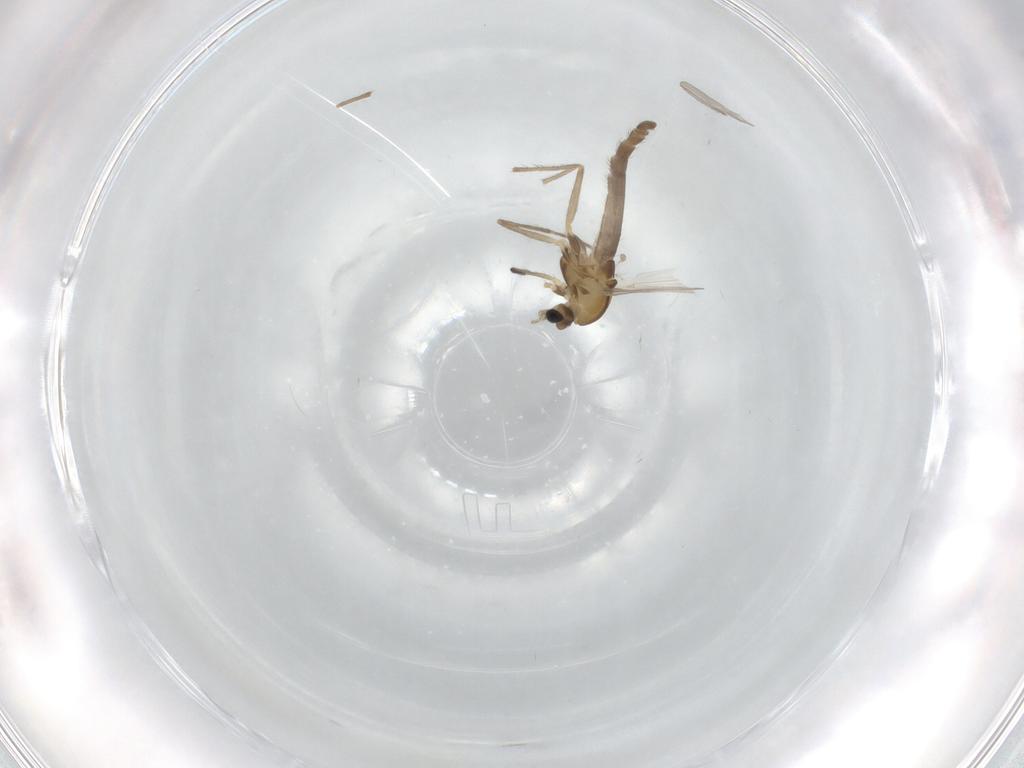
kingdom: Animalia
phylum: Arthropoda
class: Insecta
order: Diptera
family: Chironomidae
